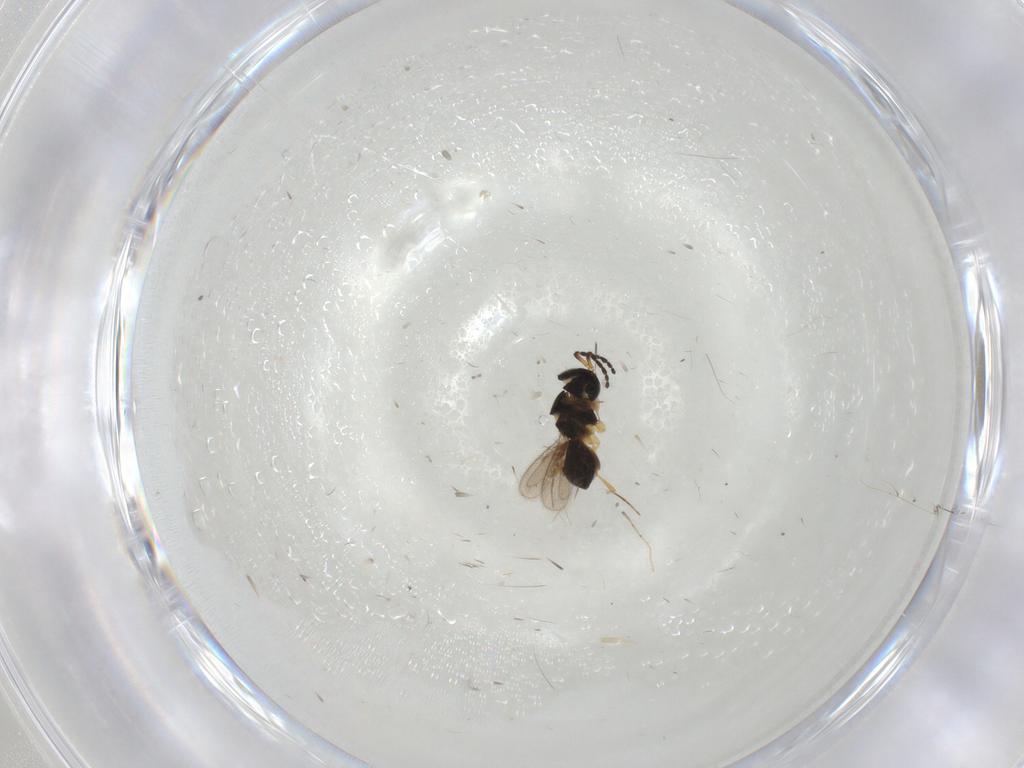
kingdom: Animalia
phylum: Arthropoda
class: Insecta
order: Hymenoptera
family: Scelionidae
